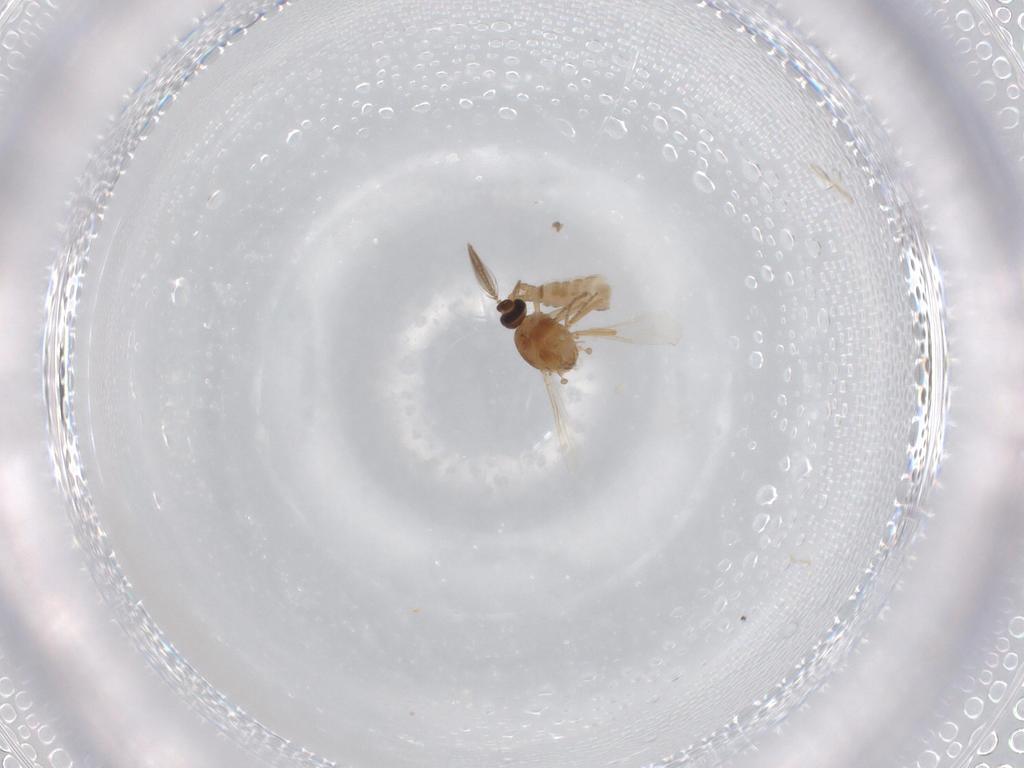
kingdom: Animalia
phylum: Arthropoda
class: Insecta
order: Diptera
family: Ceratopogonidae
